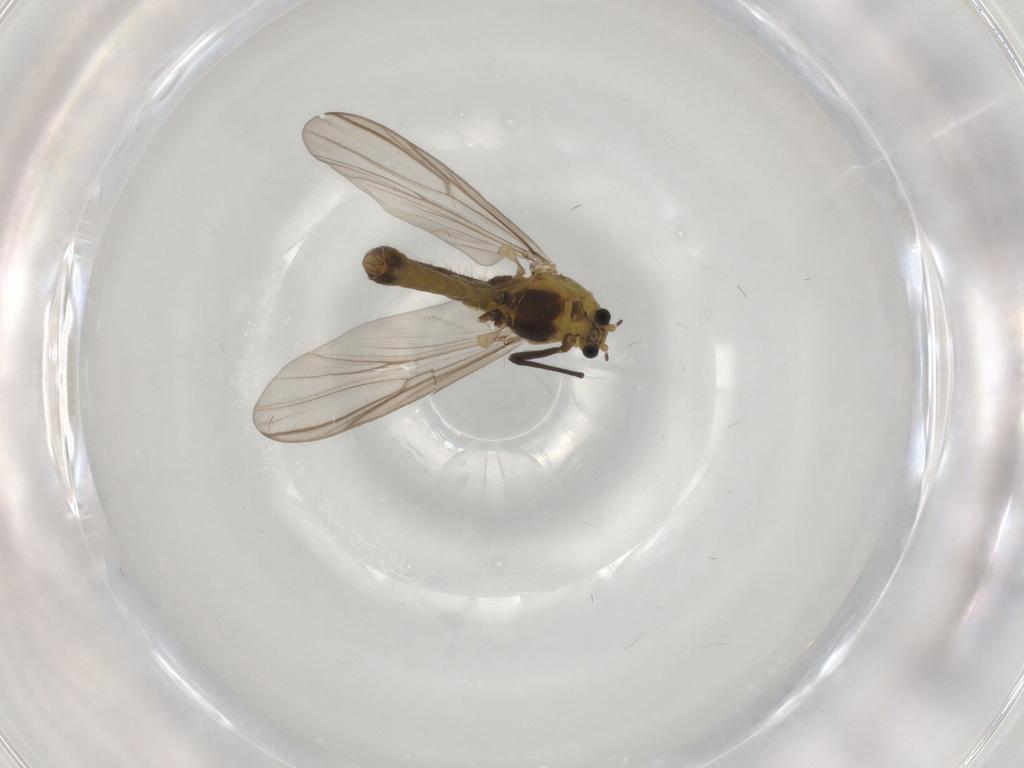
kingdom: Animalia
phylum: Arthropoda
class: Insecta
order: Diptera
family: Chironomidae
